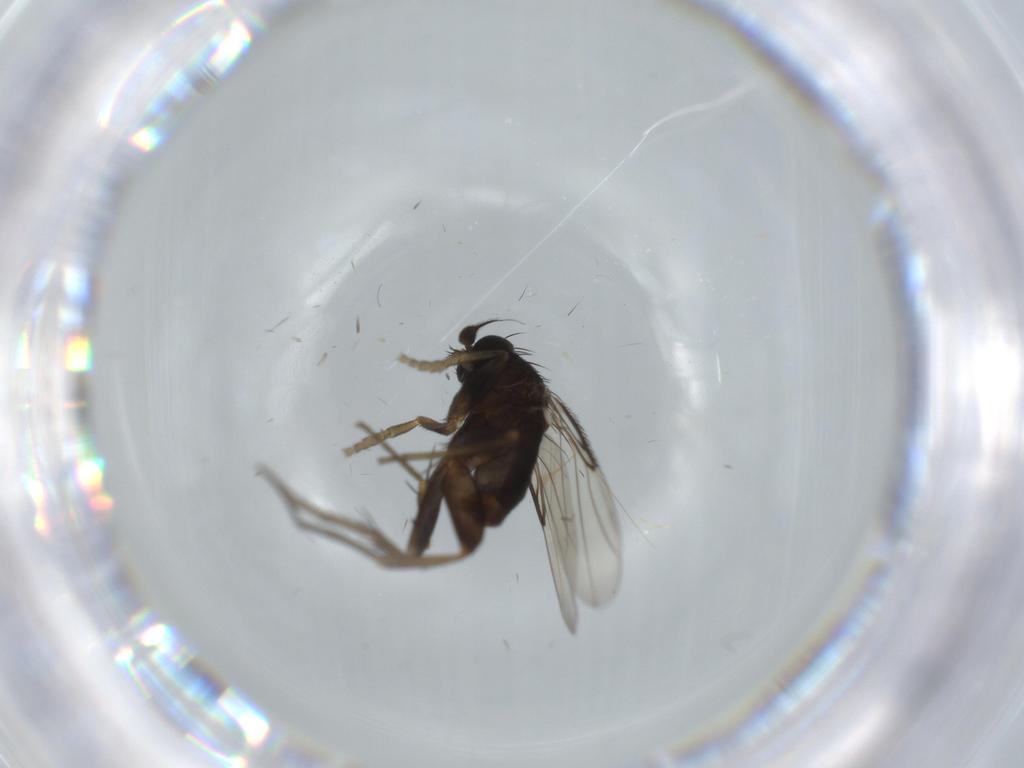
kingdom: Animalia
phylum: Arthropoda
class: Insecta
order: Diptera
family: Phoridae
